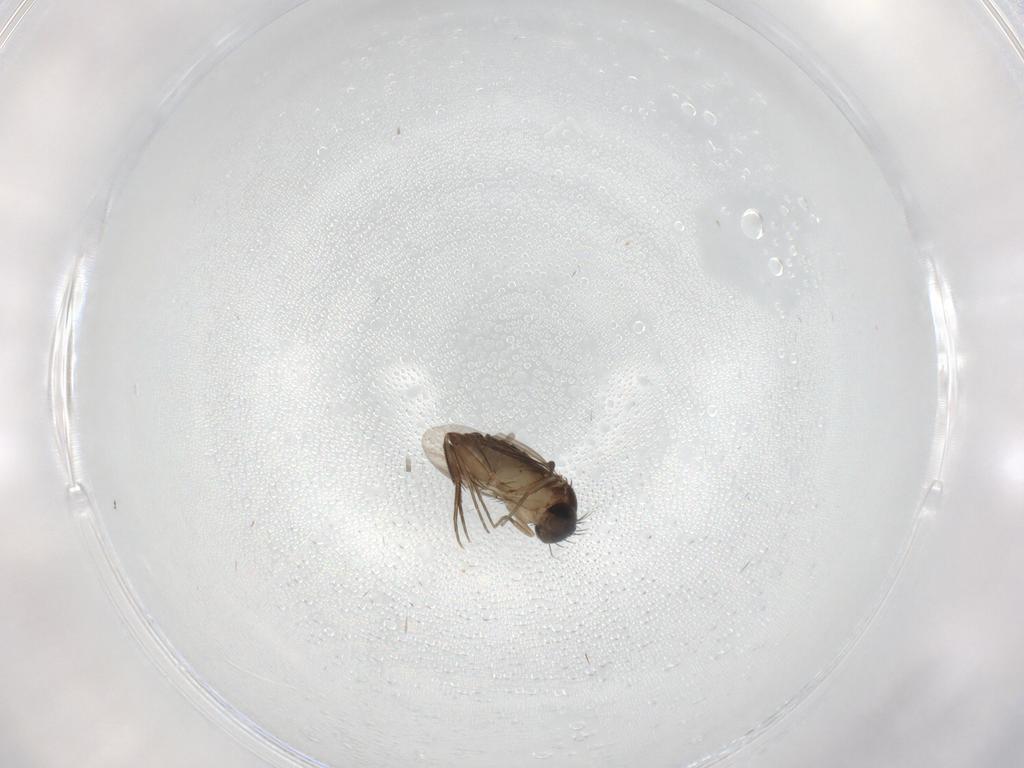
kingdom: Animalia
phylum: Arthropoda
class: Insecta
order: Diptera
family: Phoridae
